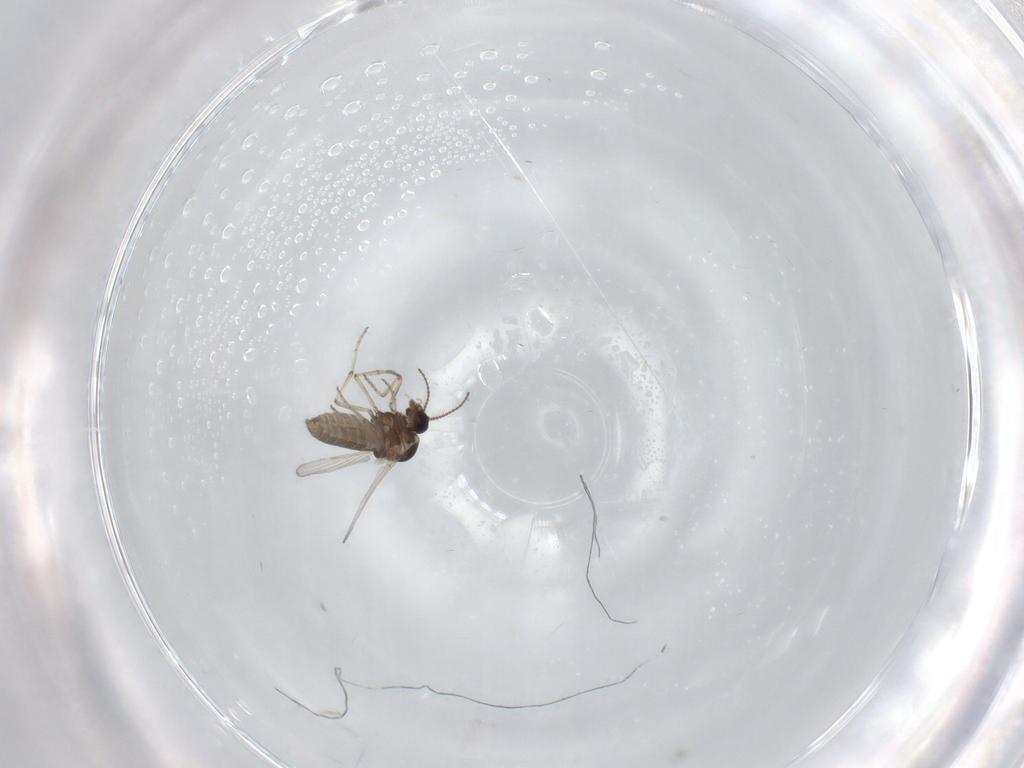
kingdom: Animalia
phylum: Arthropoda
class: Insecta
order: Diptera
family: Ceratopogonidae
